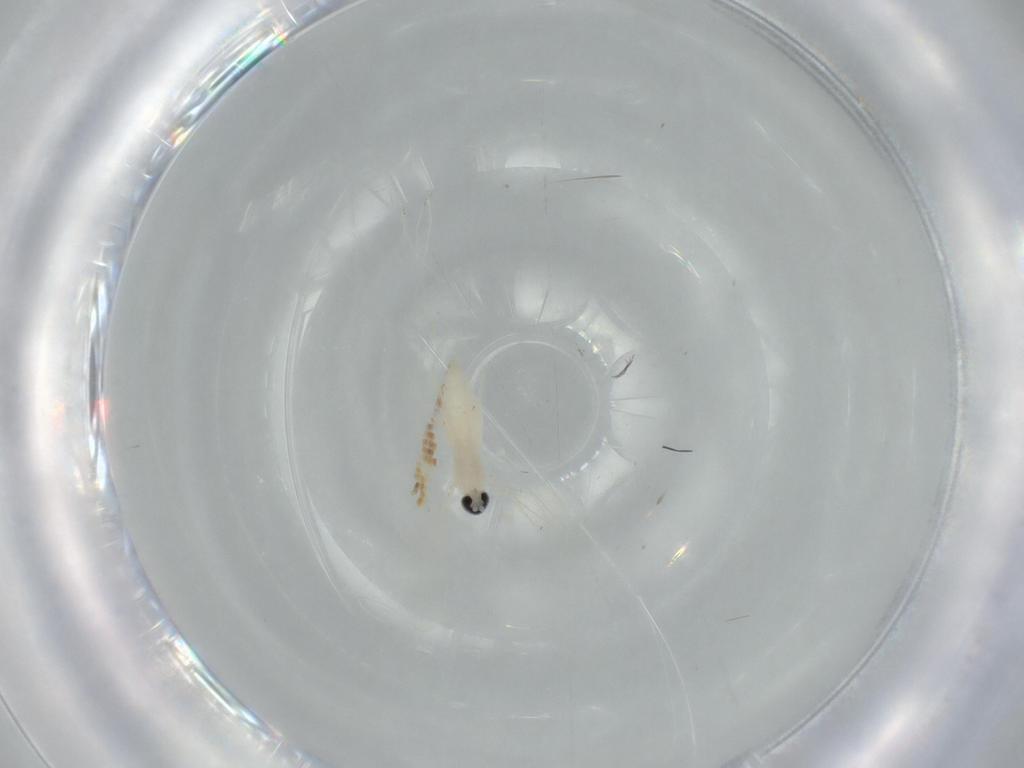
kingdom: Animalia
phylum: Arthropoda
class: Insecta
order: Diptera
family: Cecidomyiidae
